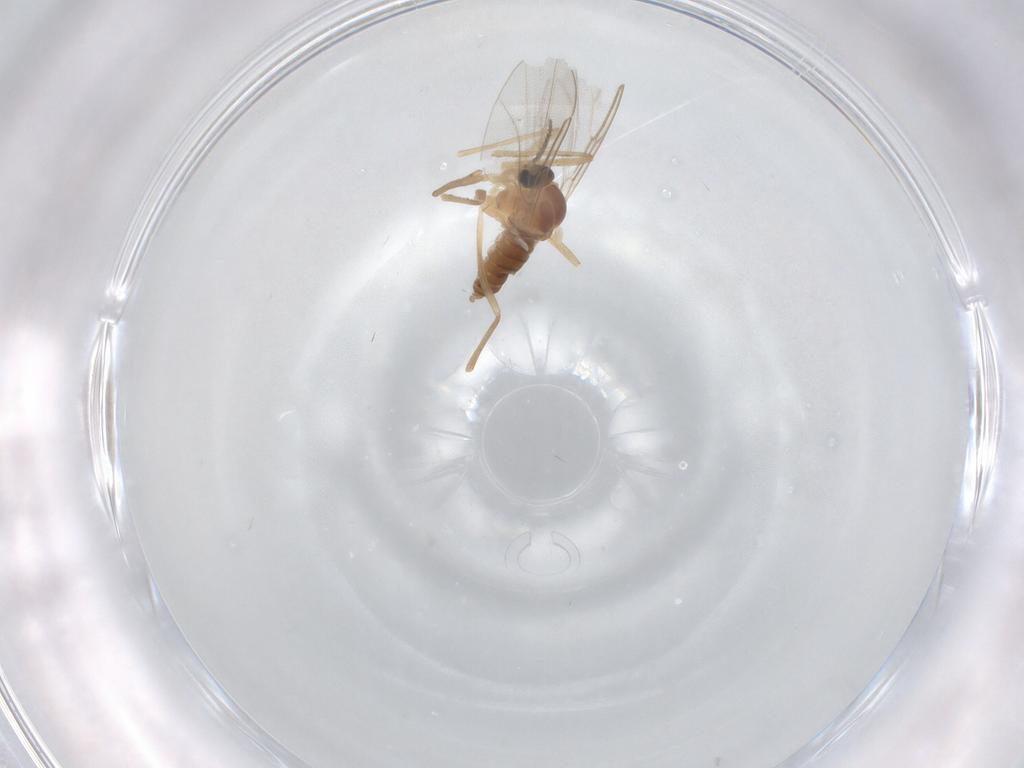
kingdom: Animalia
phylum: Arthropoda
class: Insecta
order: Diptera
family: Cecidomyiidae
